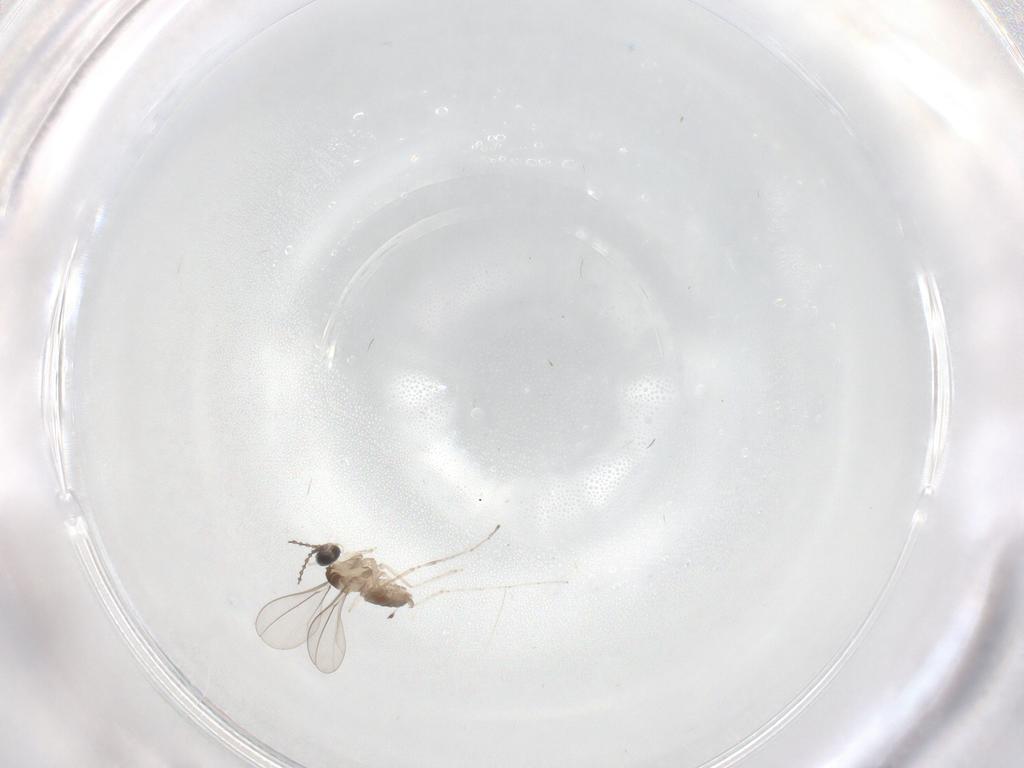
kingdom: Animalia
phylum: Arthropoda
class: Insecta
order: Diptera
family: Cecidomyiidae
